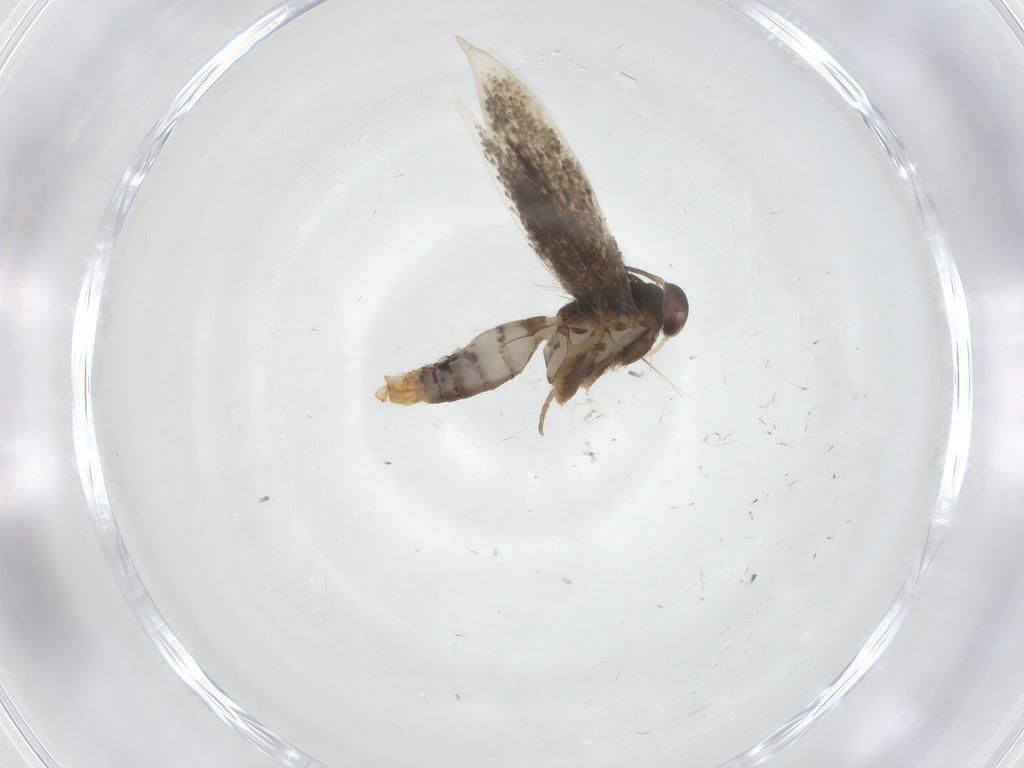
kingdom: Animalia
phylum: Arthropoda
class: Insecta
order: Lepidoptera
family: Elachistidae
